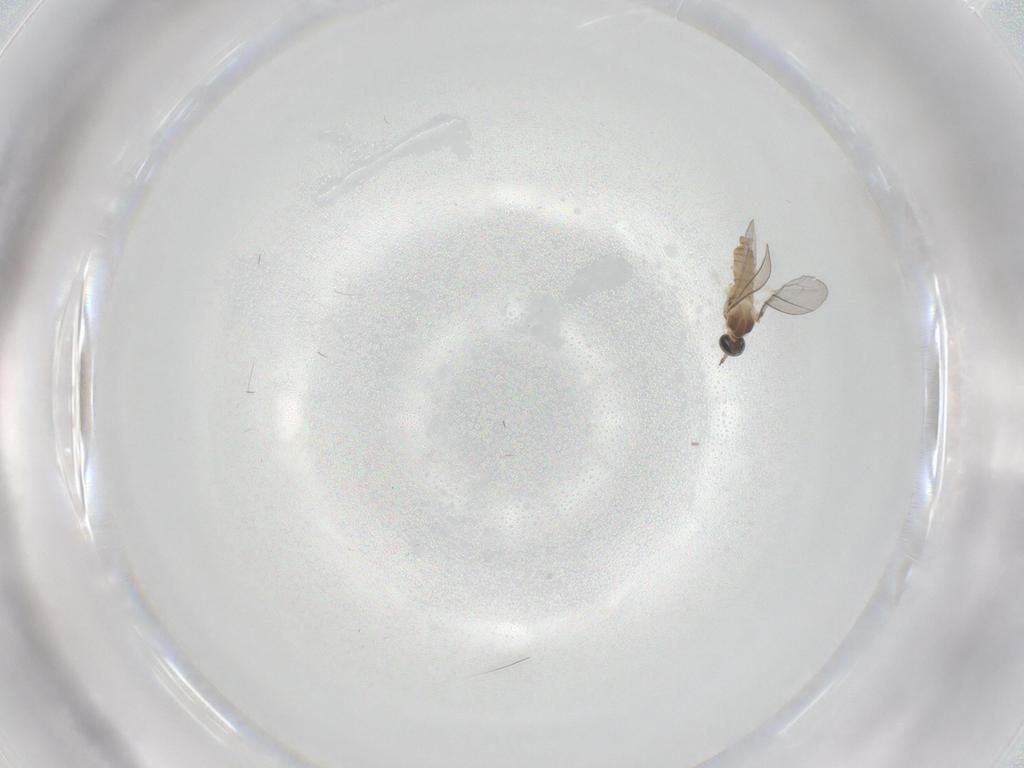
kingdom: Animalia
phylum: Arthropoda
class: Insecta
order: Diptera
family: Cecidomyiidae
